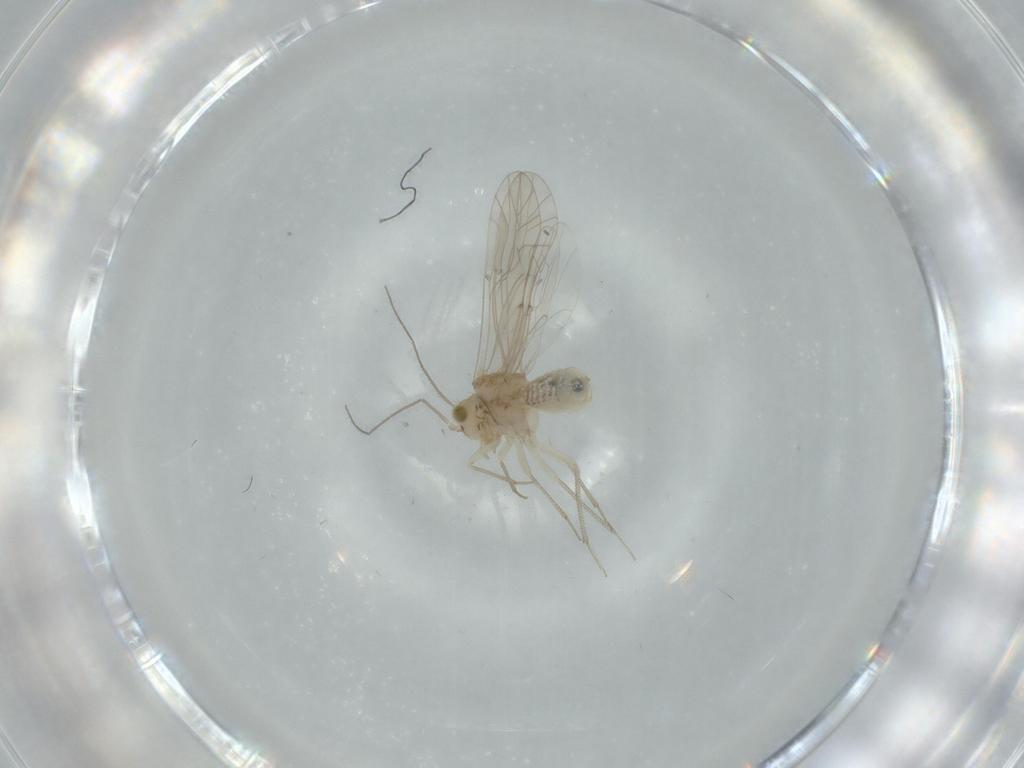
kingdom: Animalia
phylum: Arthropoda
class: Insecta
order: Psocodea
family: Lachesillidae
